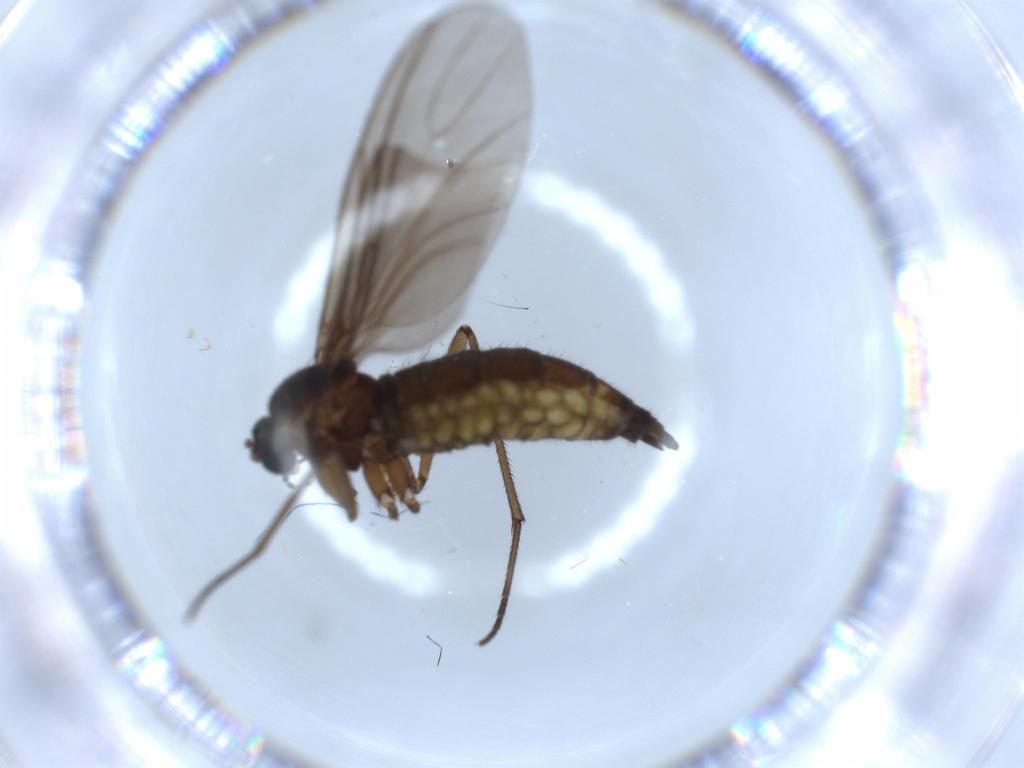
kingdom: Animalia
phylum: Arthropoda
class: Insecta
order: Diptera
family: Sciaridae
